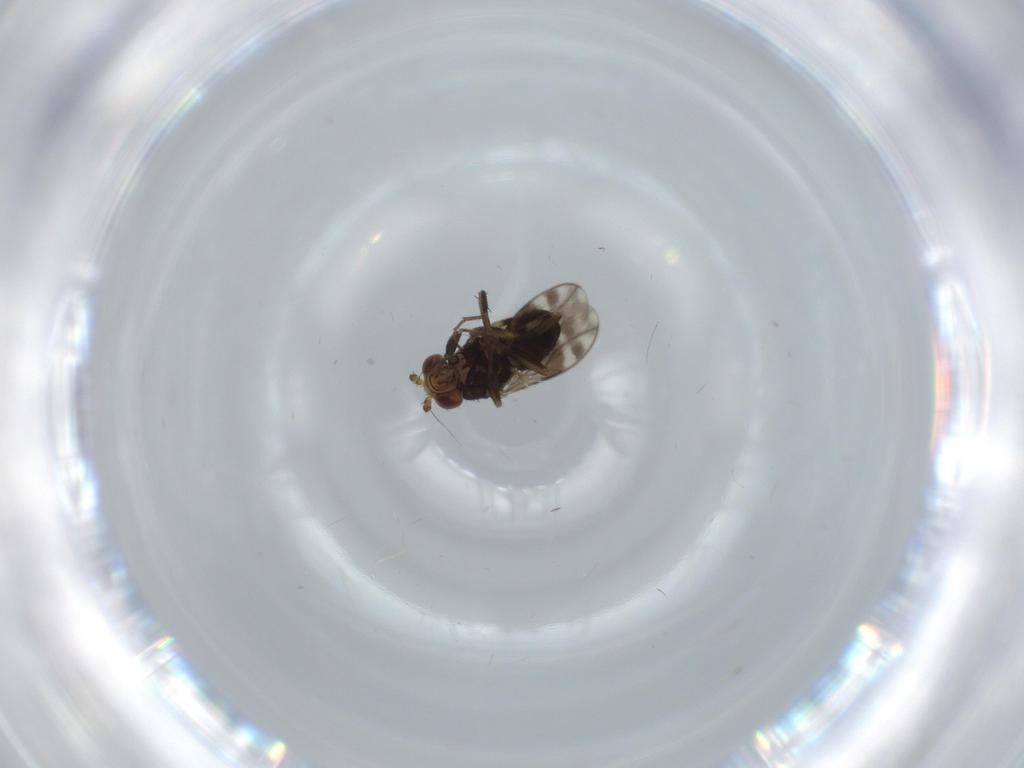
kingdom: Animalia
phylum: Arthropoda
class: Insecta
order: Diptera
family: Sphaeroceridae
